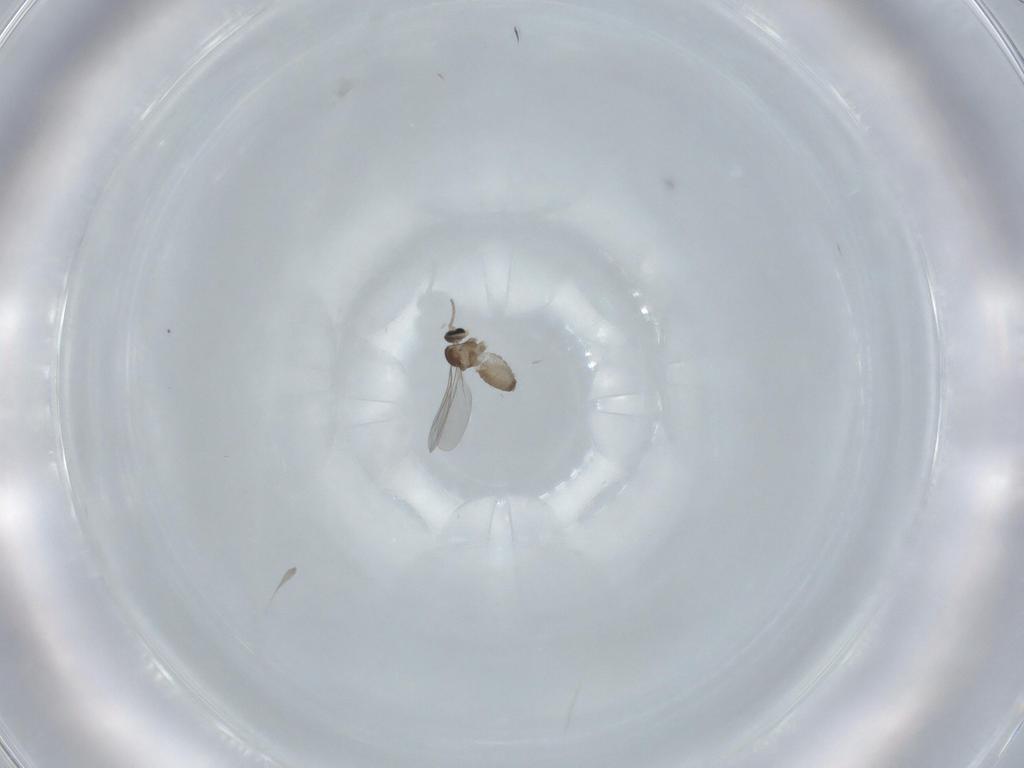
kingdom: Animalia
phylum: Arthropoda
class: Insecta
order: Diptera
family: Cecidomyiidae
